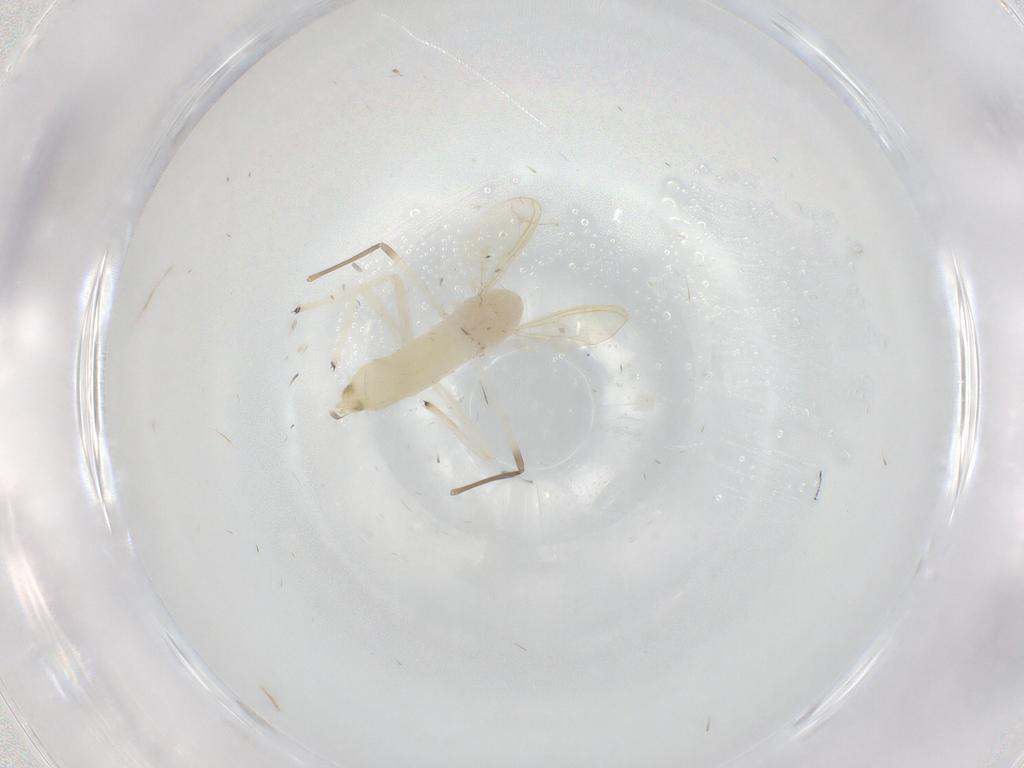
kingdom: Animalia
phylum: Arthropoda
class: Insecta
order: Diptera
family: Chironomidae
